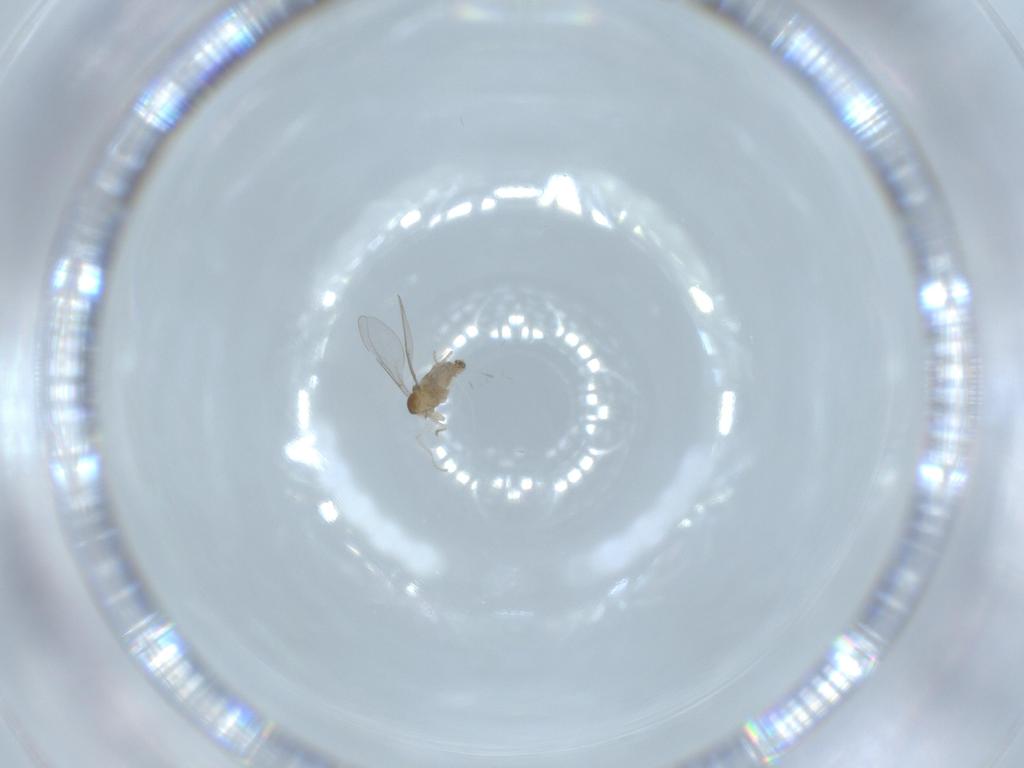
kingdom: Animalia
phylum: Arthropoda
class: Insecta
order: Diptera
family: Cecidomyiidae
